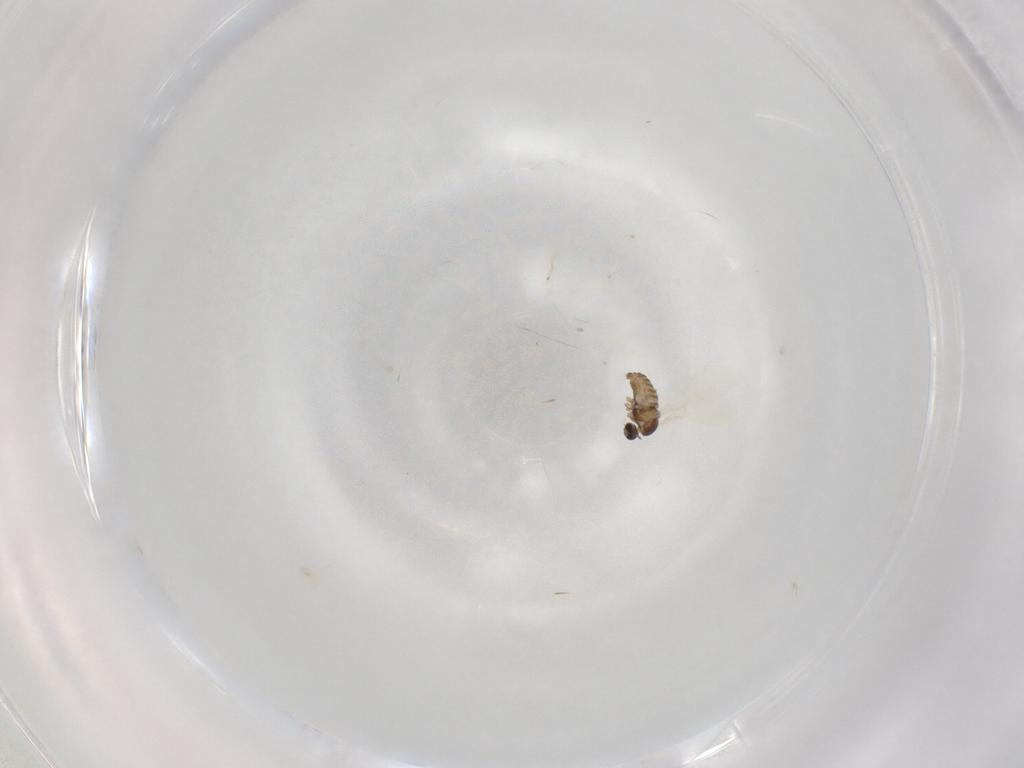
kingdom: Animalia
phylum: Arthropoda
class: Insecta
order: Diptera
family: Cecidomyiidae
